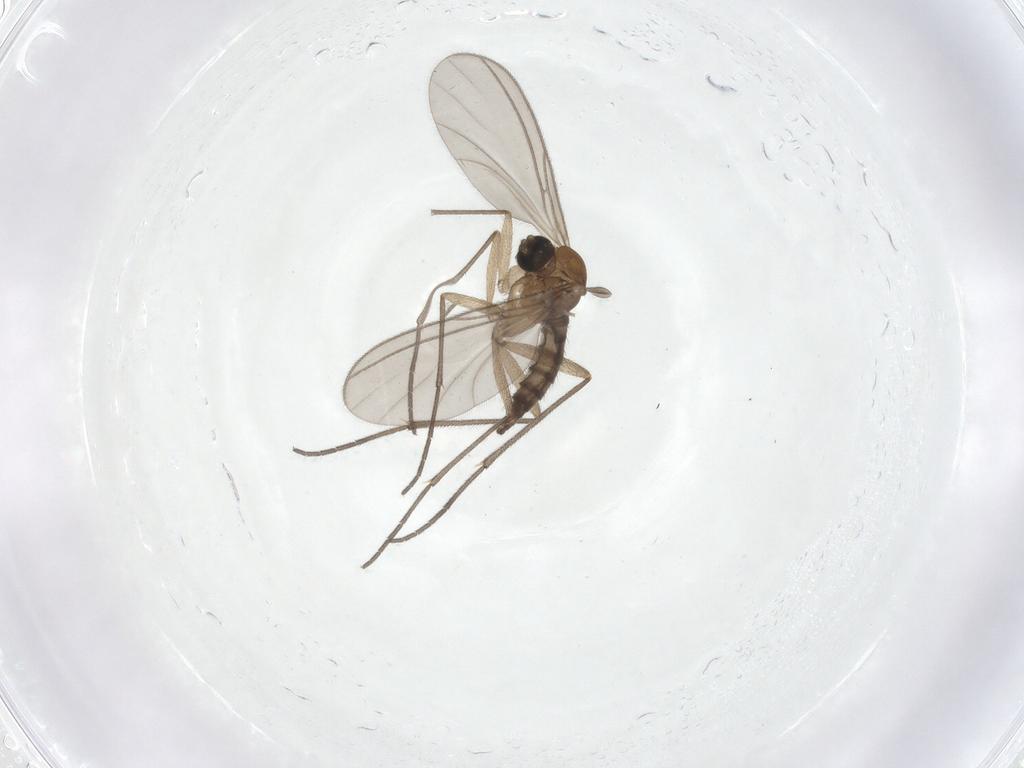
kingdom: Animalia
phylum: Arthropoda
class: Insecta
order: Diptera
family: Sciaridae
